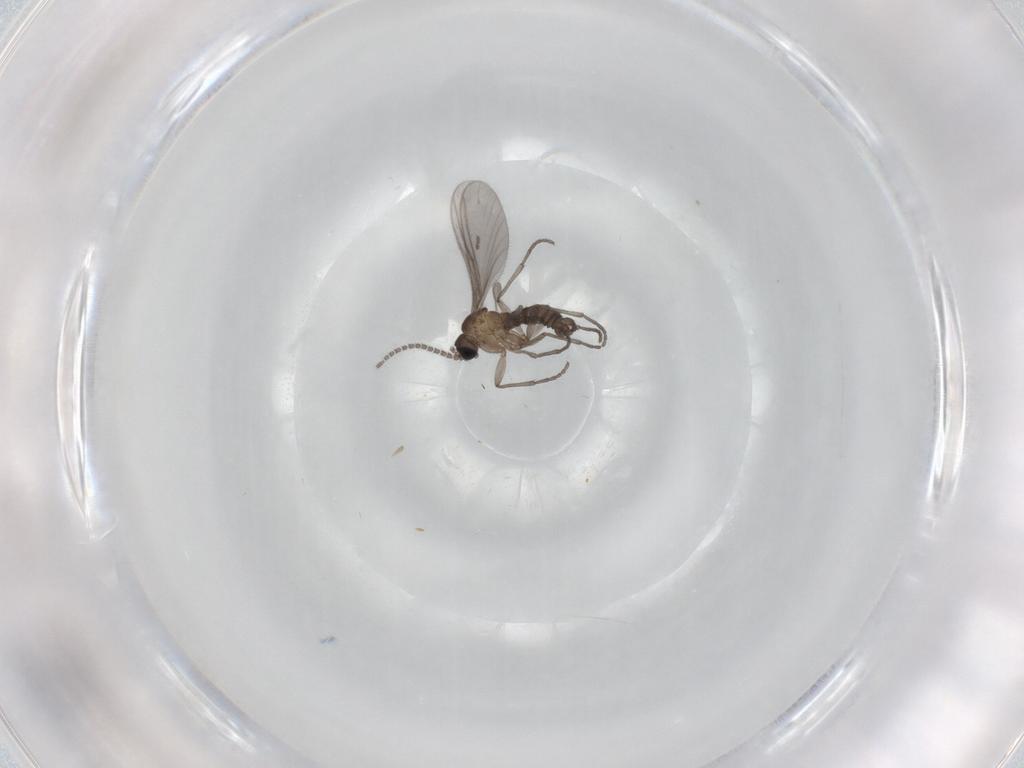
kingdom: Animalia
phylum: Arthropoda
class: Insecta
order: Diptera
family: Sciaridae
